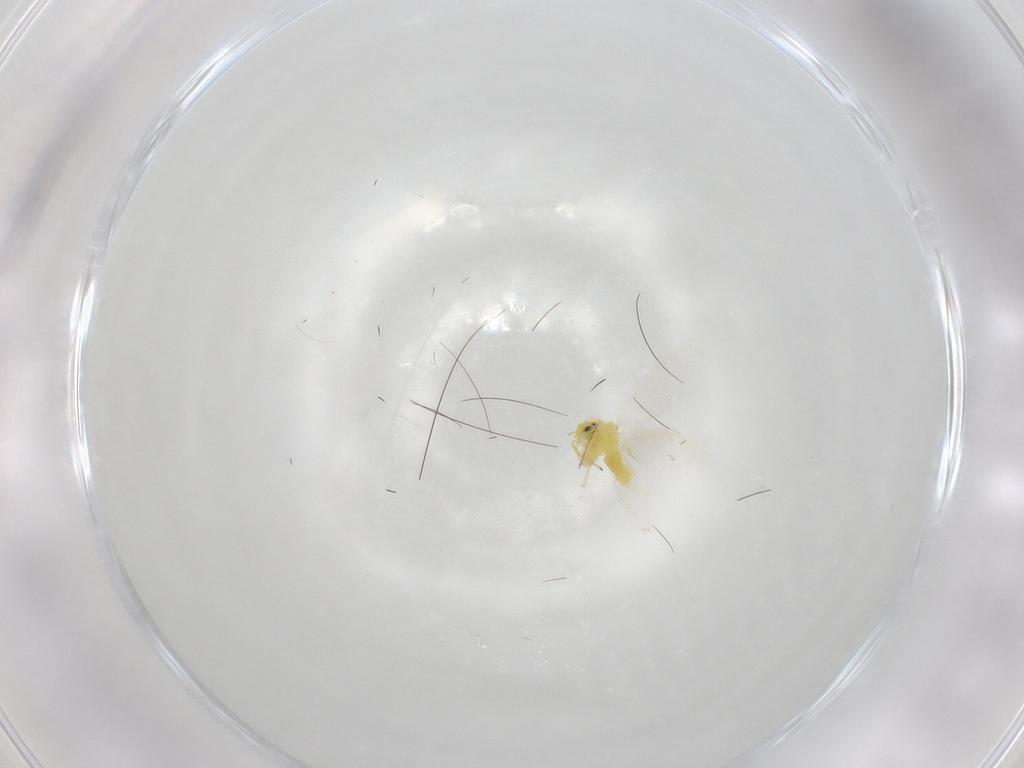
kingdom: Animalia
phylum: Arthropoda
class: Insecta
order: Hemiptera
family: Aleyrodidae
